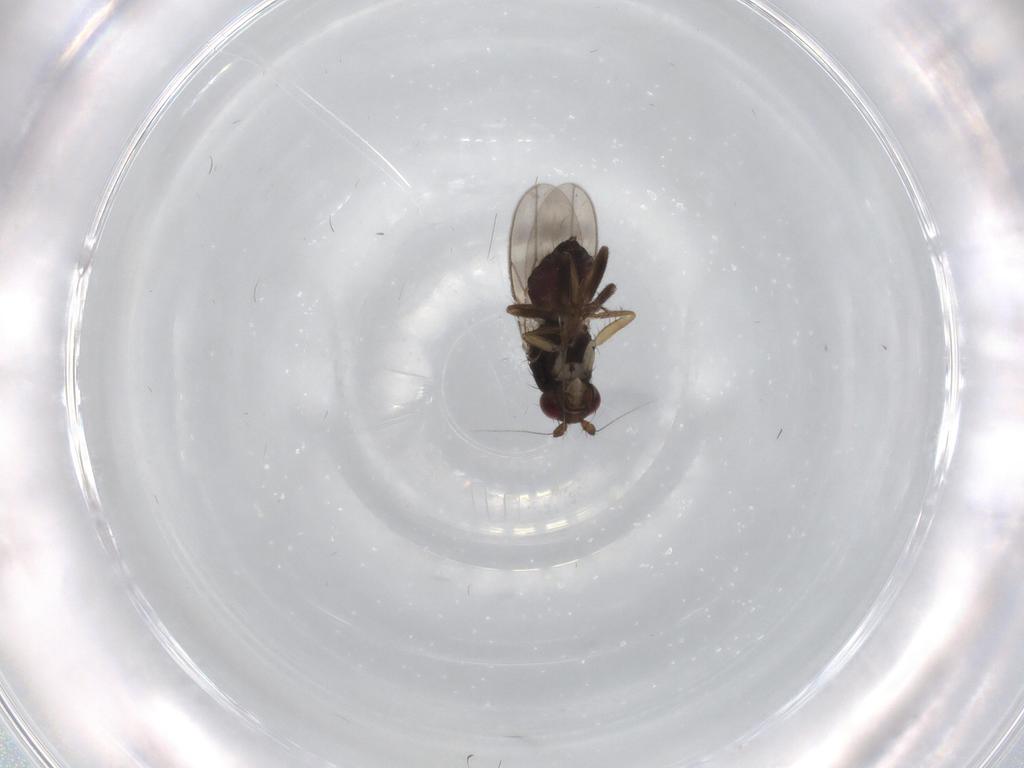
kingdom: Animalia
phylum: Arthropoda
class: Insecta
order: Diptera
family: Sphaeroceridae
